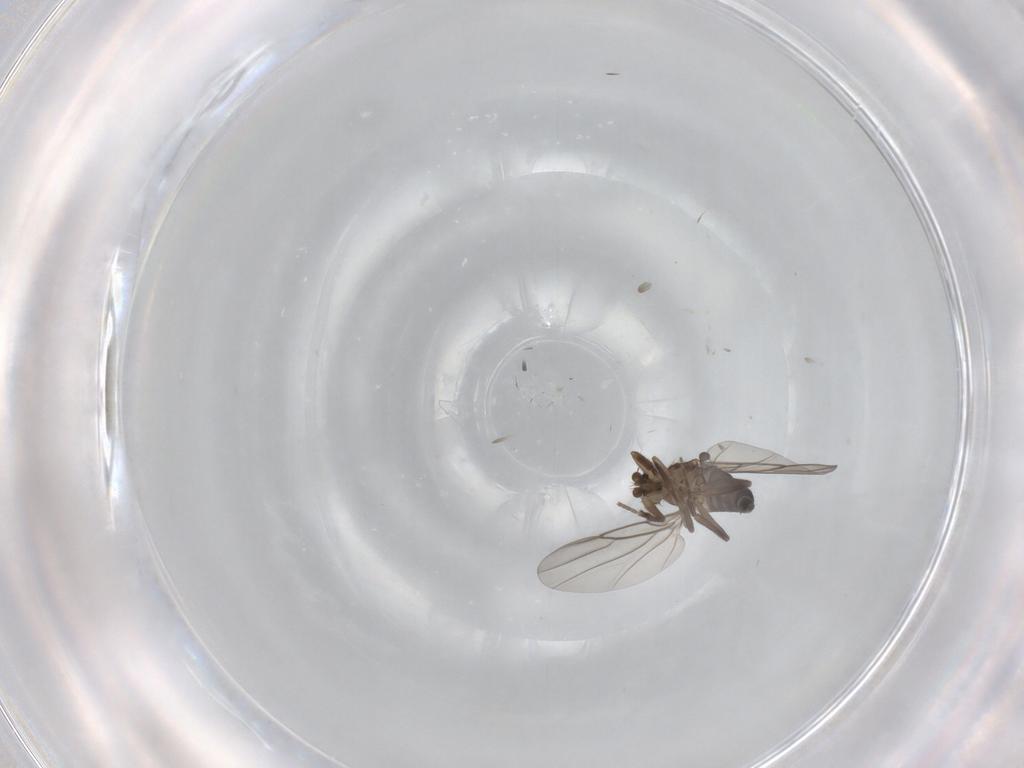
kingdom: Animalia
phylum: Arthropoda
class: Insecta
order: Diptera
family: Phoridae
